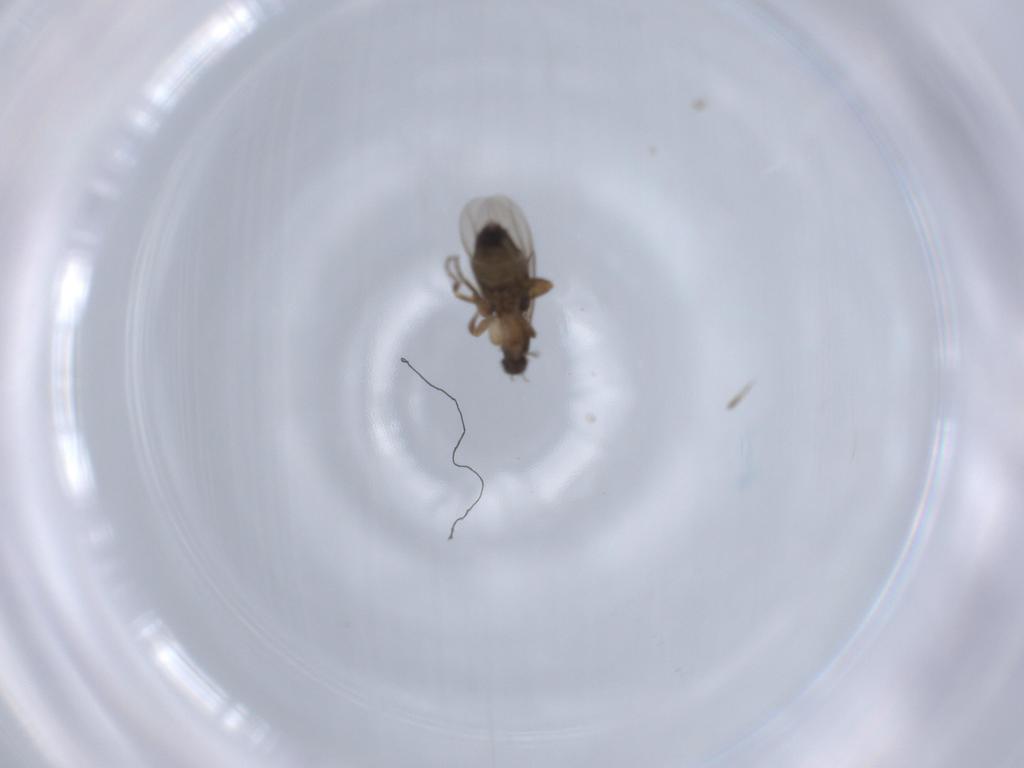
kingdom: Animalia
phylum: Arthropoda
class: Insecta
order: Diptera
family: Phoridae
